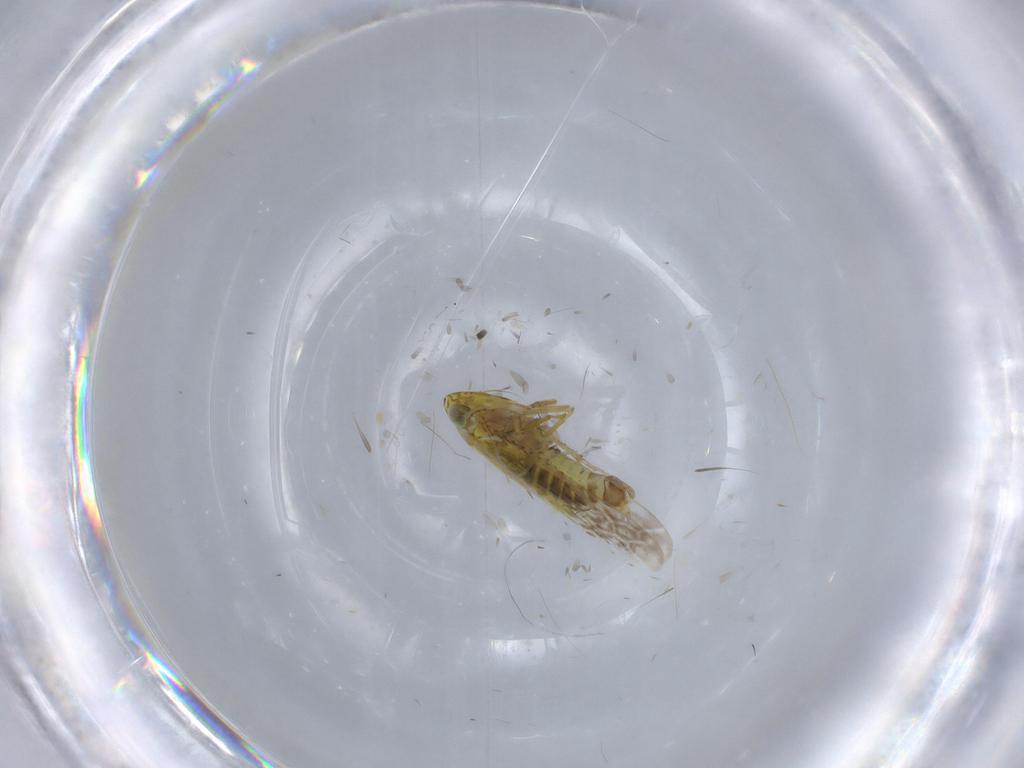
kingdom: Animalia
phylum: Arthropoda
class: Insecta
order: Hemiptera
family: Cicadellidae
